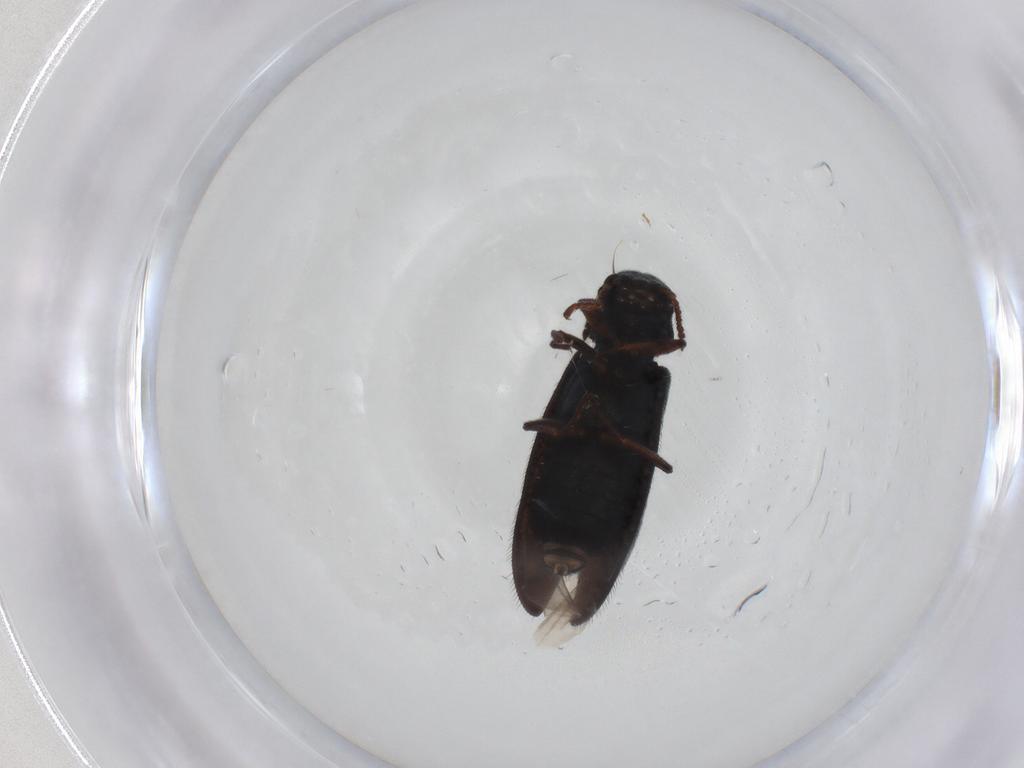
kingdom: Animalia
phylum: Arthropoda
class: Insecta
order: Coleoptera
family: Melyridae
